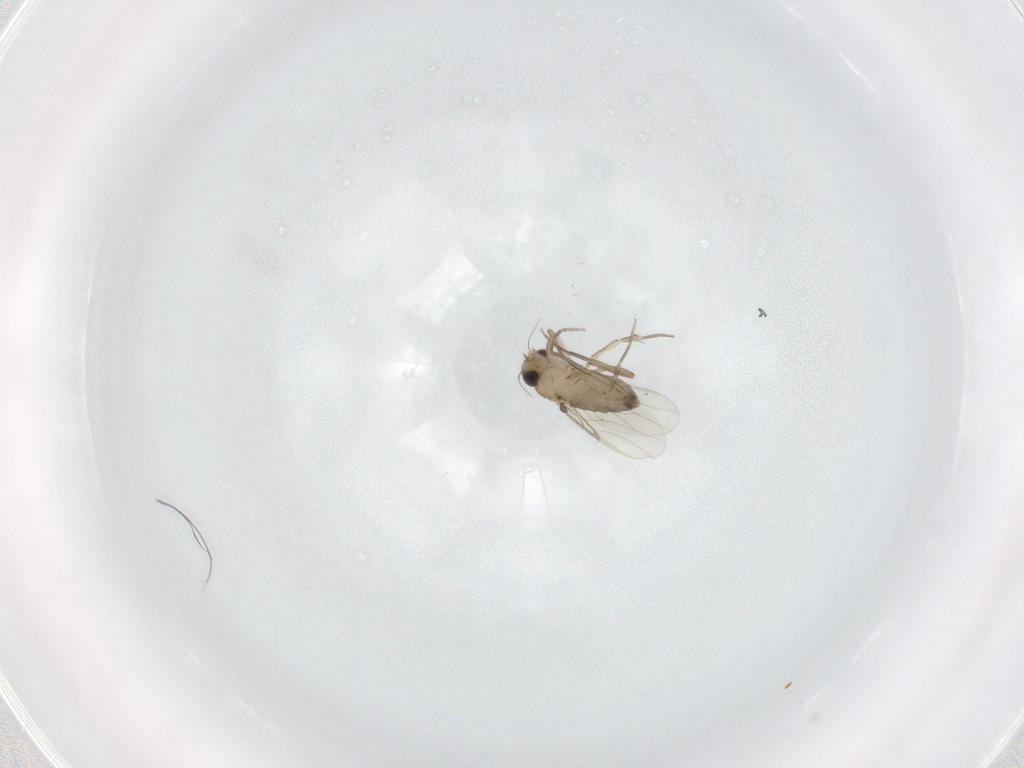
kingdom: Animalia
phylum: Arthropoda
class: Insecta
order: Diptera
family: Phoridae
